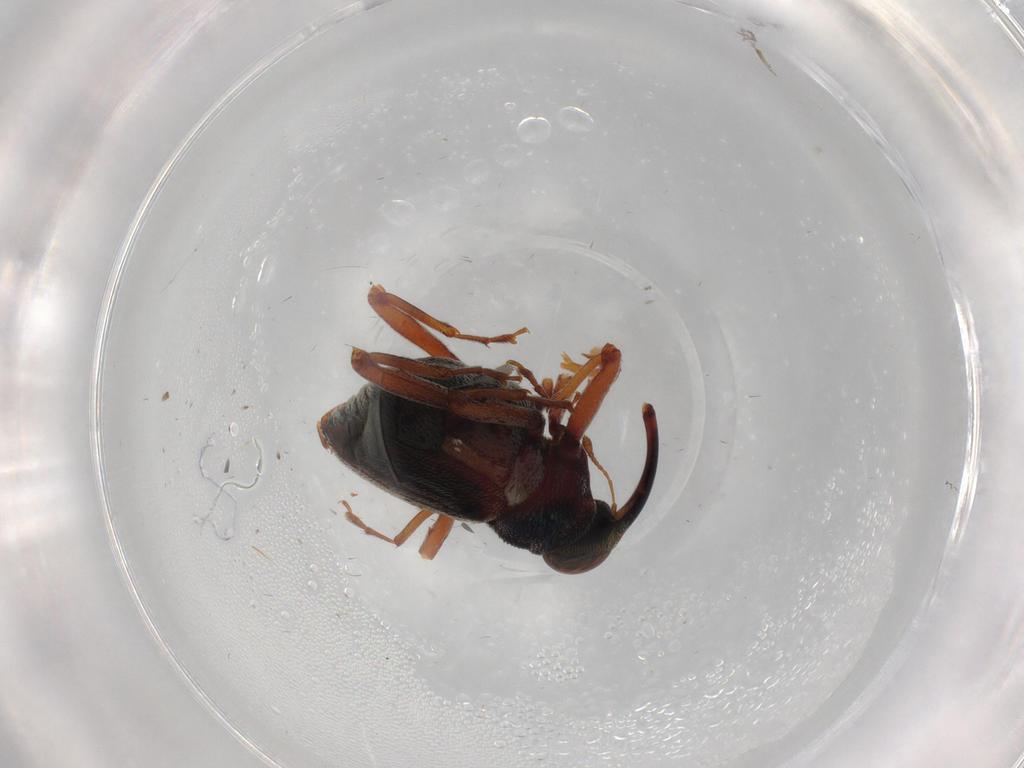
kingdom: Animalia
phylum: Arthropoda
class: Insecta
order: Coleoptera
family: Curculionidae
